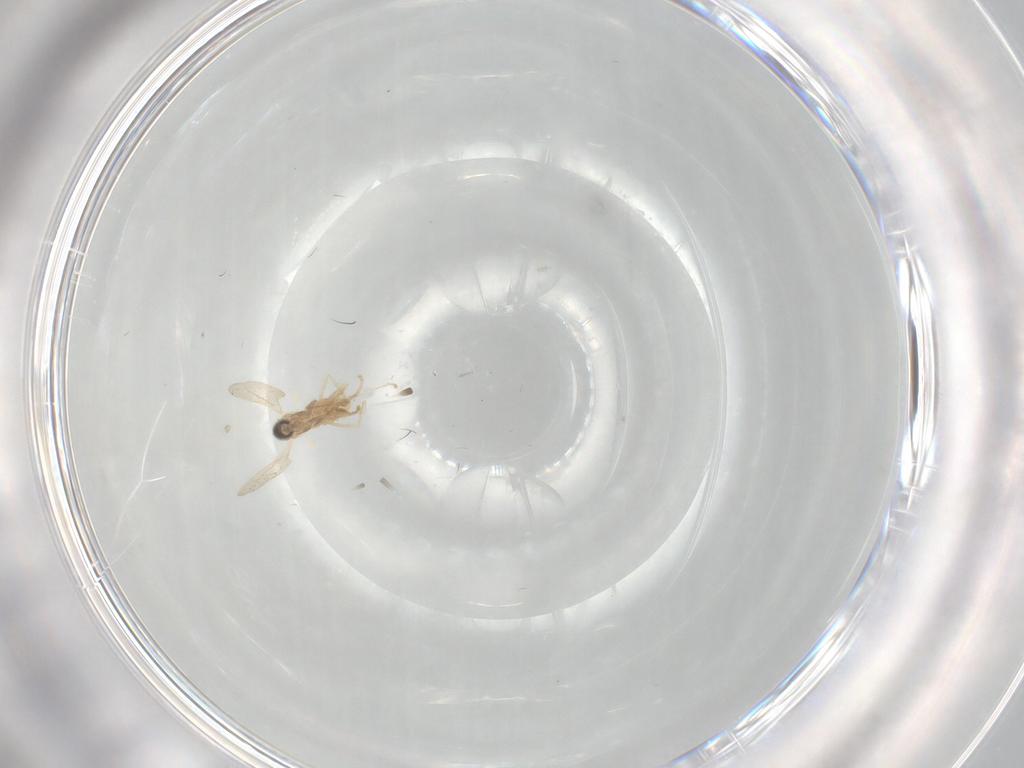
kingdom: Animalia
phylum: Arthropoda
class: Insecta
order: Diptera
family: Cecidomyiidae
